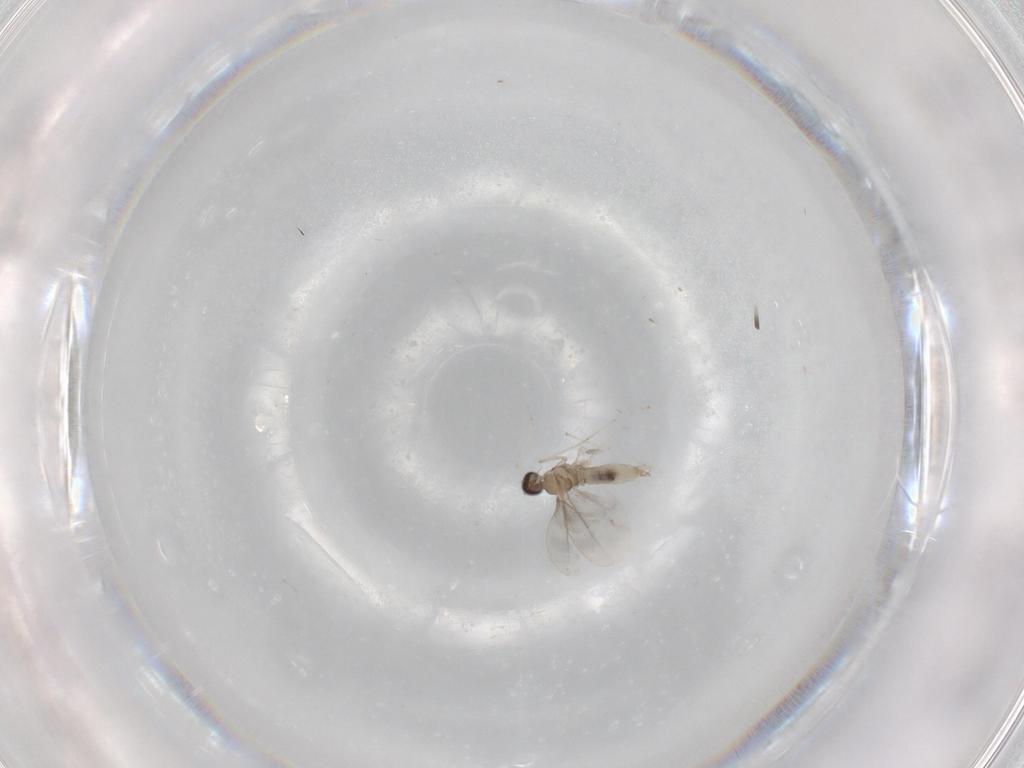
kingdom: Animalia
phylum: Arthropoda
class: Insecta
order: Diptera
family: Cecidomyiidae
